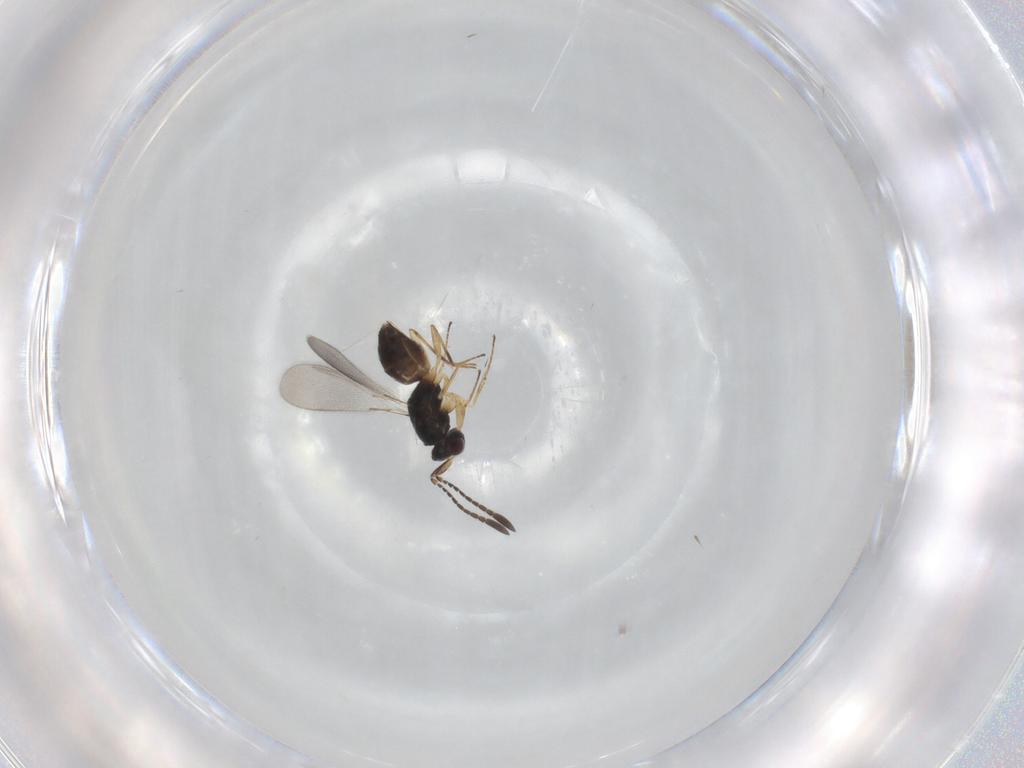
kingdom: Animalia
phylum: Arthropoda
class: Insecta
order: Hymenoptera
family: Mymaridae
